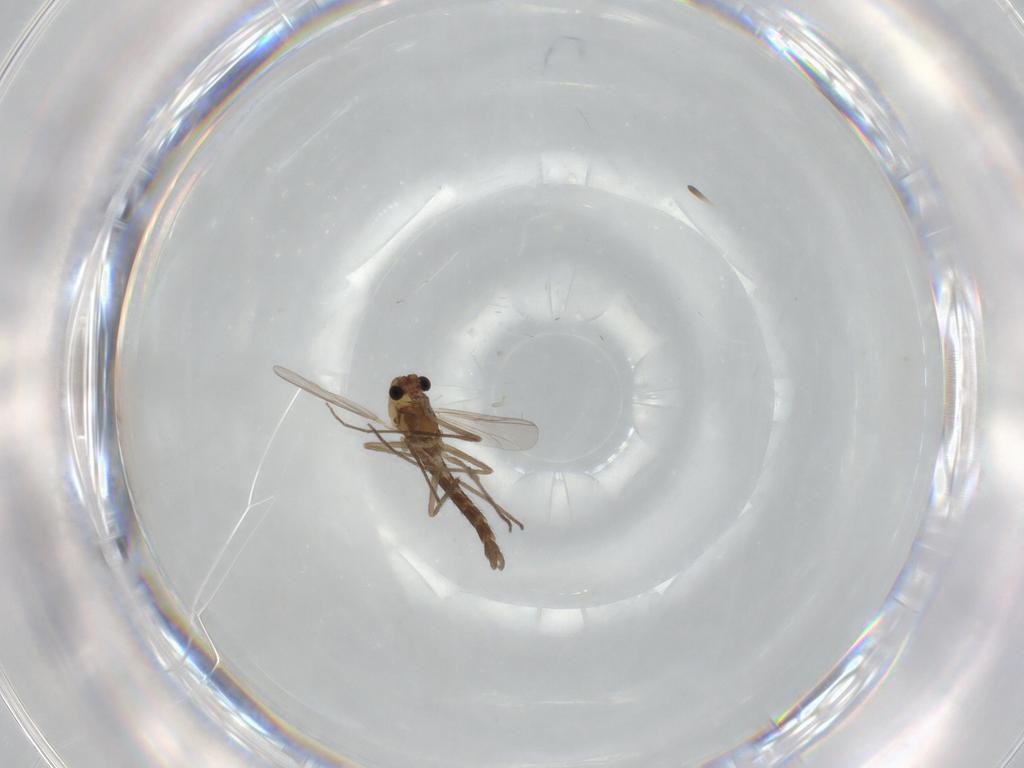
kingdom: Animalia
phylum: Arthropoda
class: Insecta
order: Diptera
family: Chironomidae
